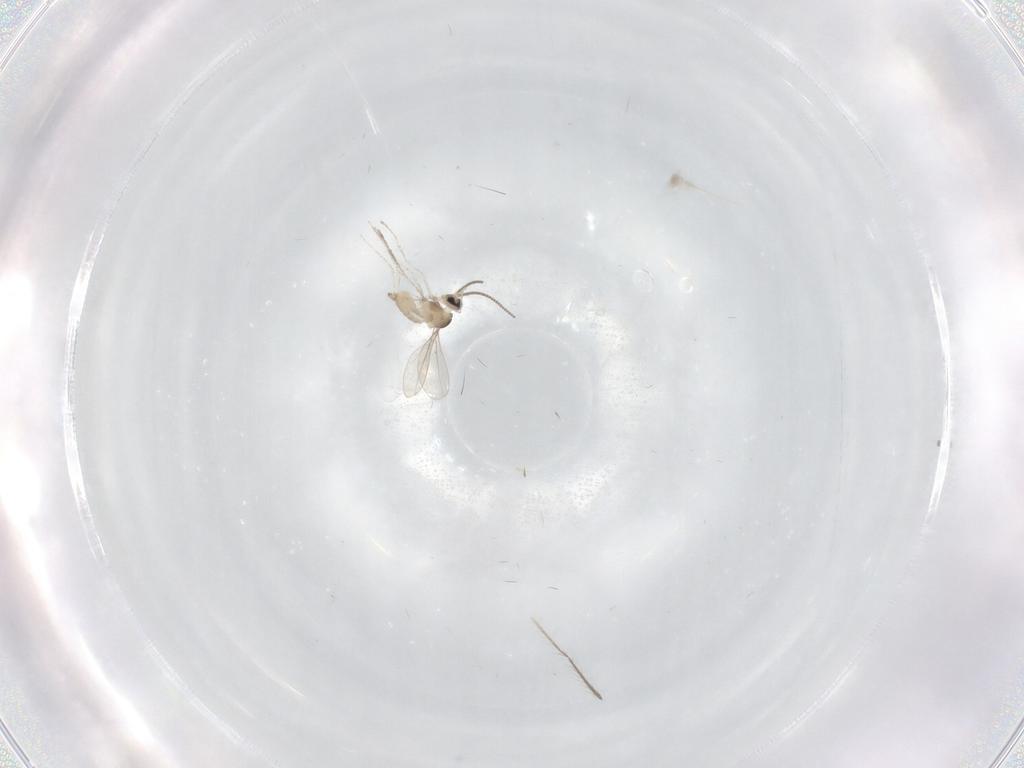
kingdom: Animalia
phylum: Arthropoda
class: Insecta
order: Diptera
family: Cecidomyiidae
